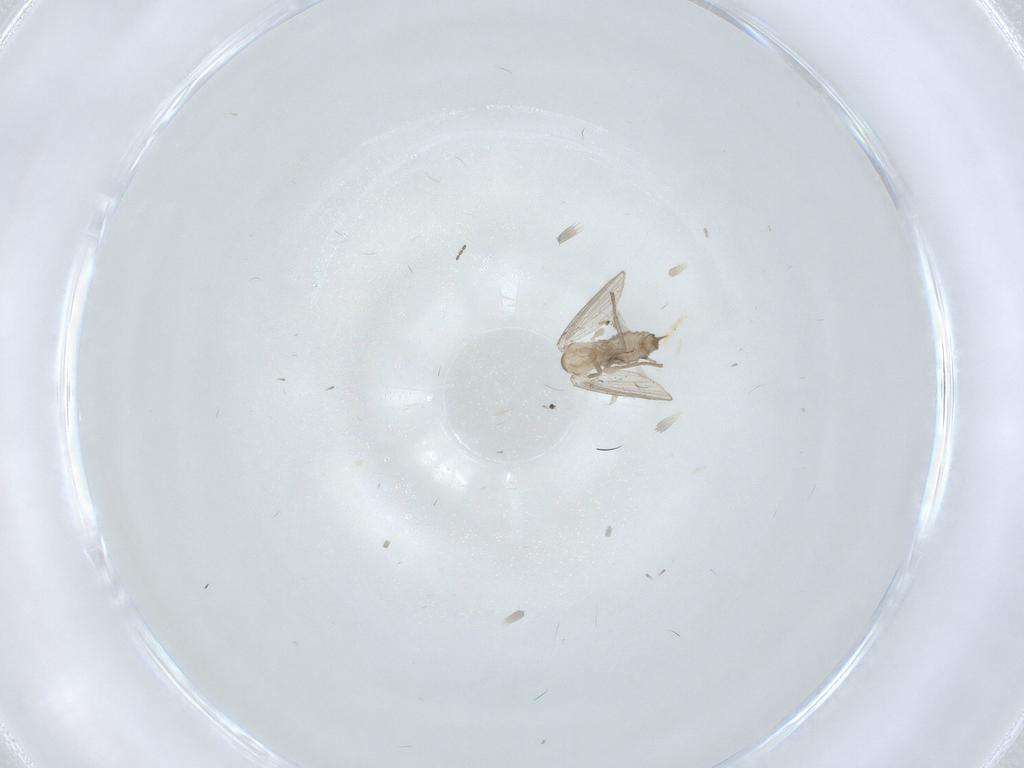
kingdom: Animalia
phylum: Arthropoda
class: Insecta
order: Diptera
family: Psychodidae
